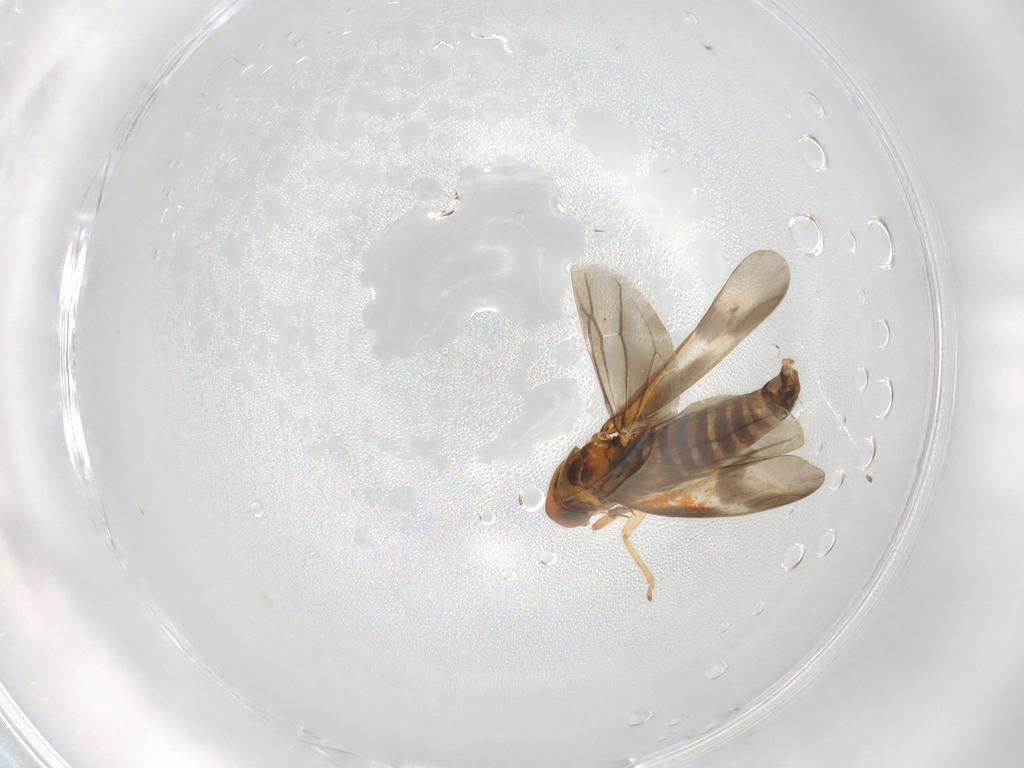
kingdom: Animalia
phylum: Arthropoda
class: Insecta
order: Hemiptera
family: Cicadellidae
